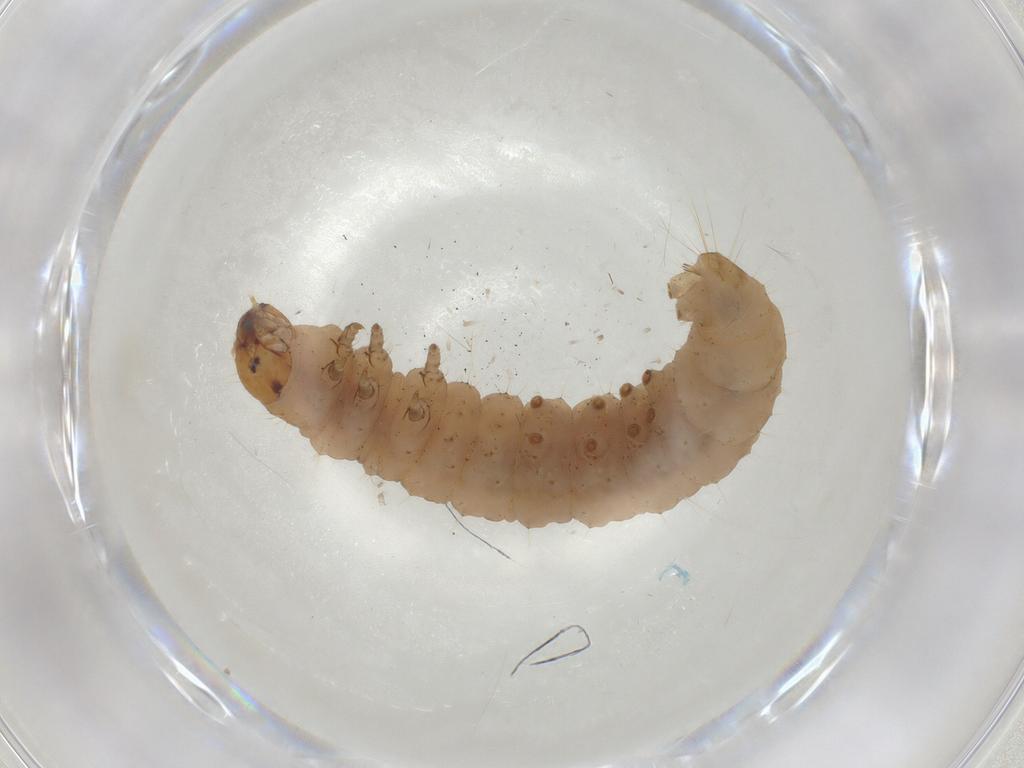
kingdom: Animalia
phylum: Arthropoda
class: Insecta
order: Lepidoptera
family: Tortricidae
